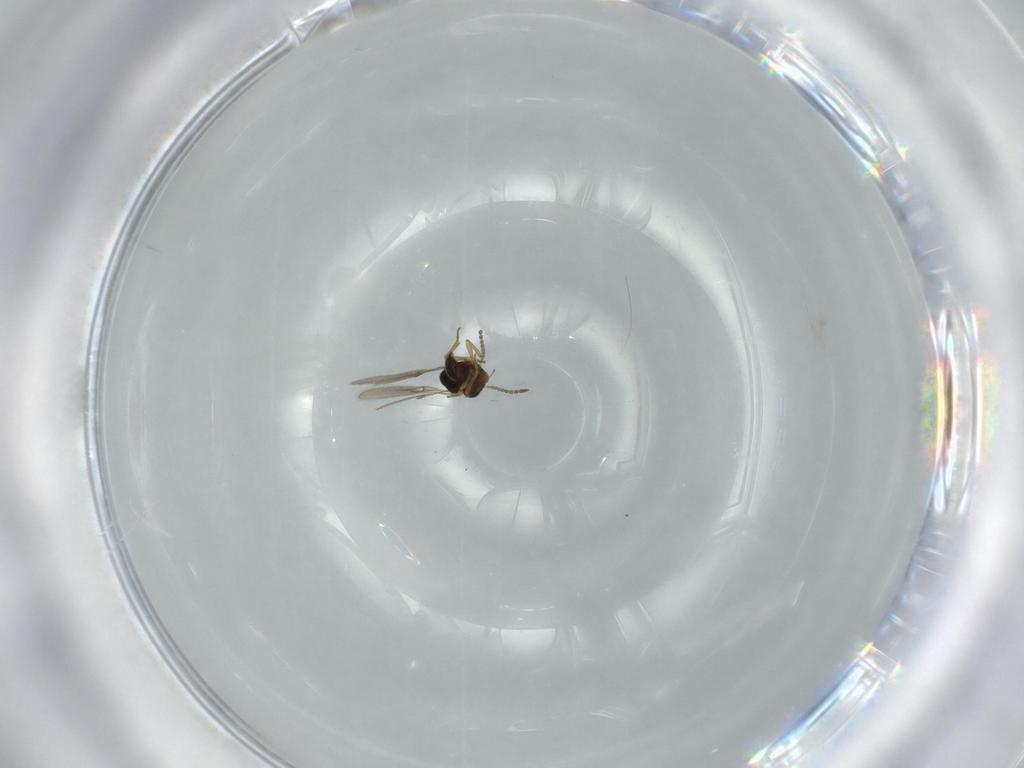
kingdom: Animalia
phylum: Arthropoda
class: Insecta
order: Hymenoptera
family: Scelionidae
